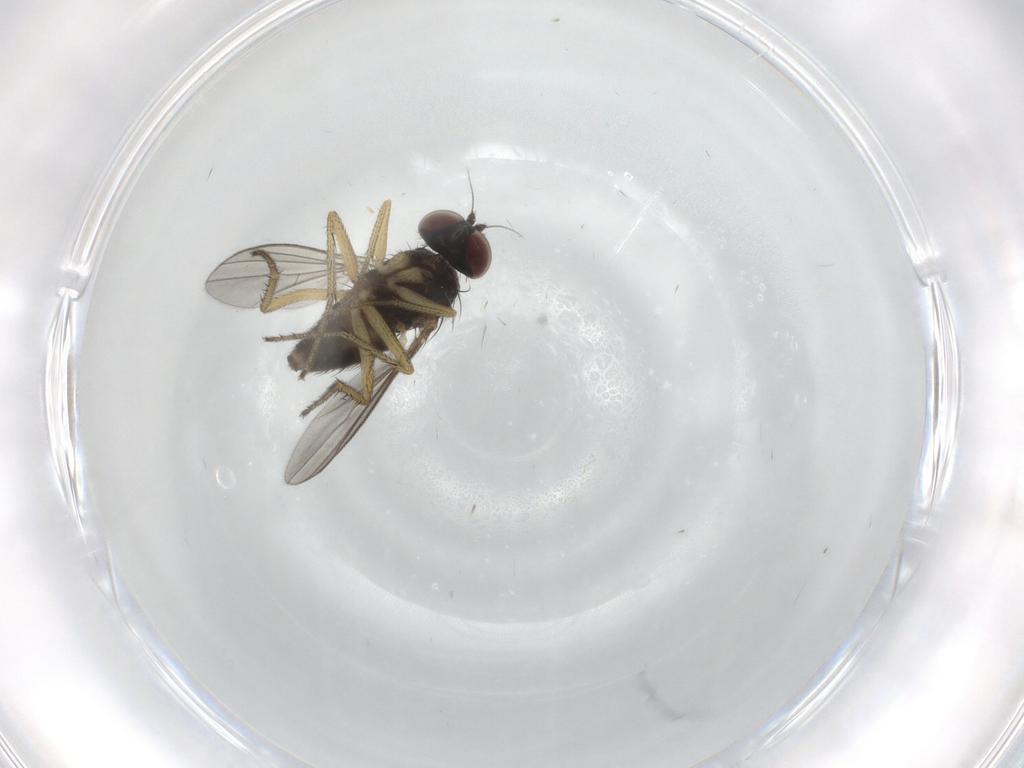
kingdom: Animalia
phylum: Arthropoda
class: Insecta
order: Diptera
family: Dolichopodidae
